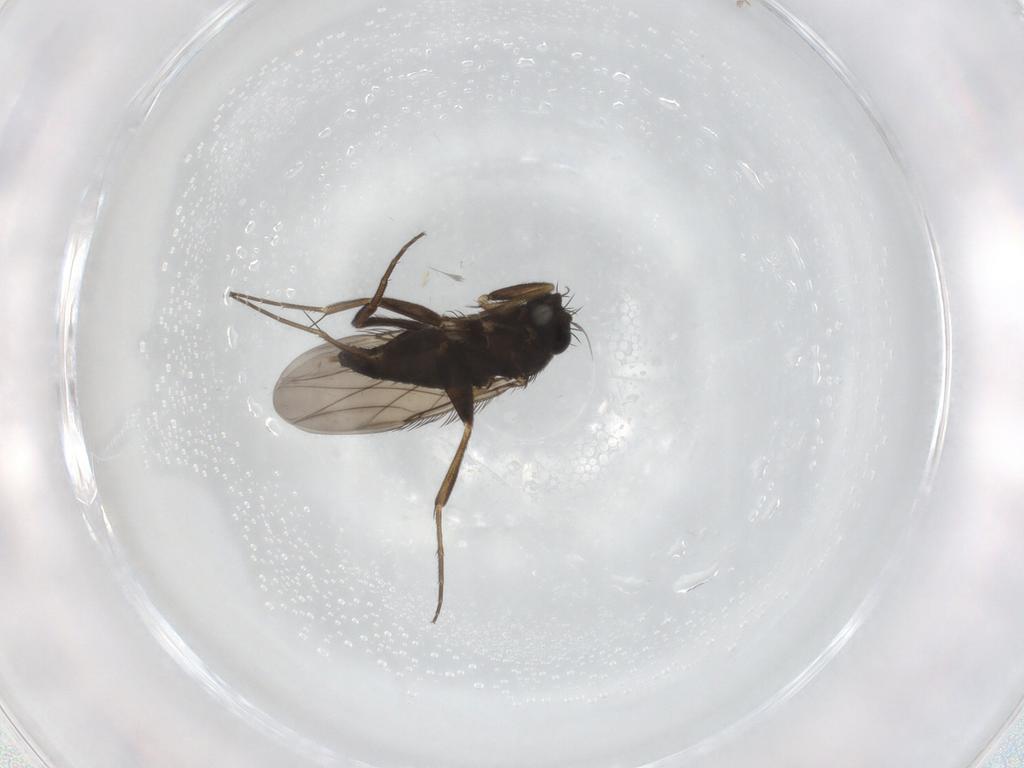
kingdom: Animalia
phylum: Arthropoda
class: Insecta
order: Diptera
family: Phoridae
